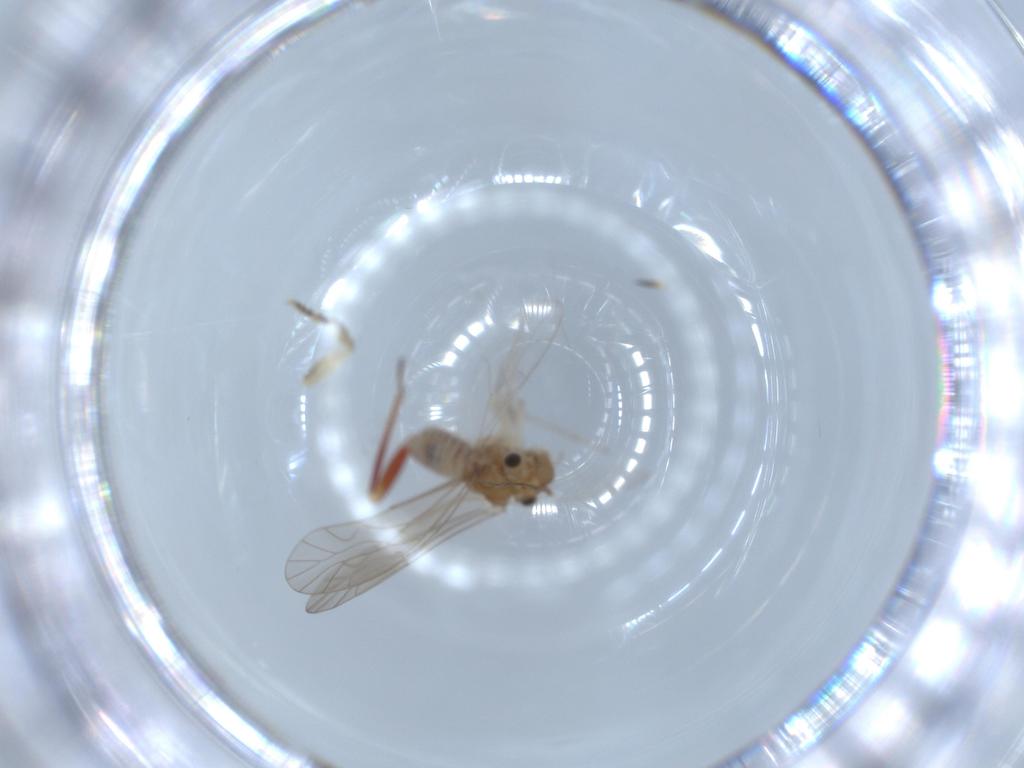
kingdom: Animalia
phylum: Arthropoda
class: Insecta
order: Psocodea
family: Lachesillidae
